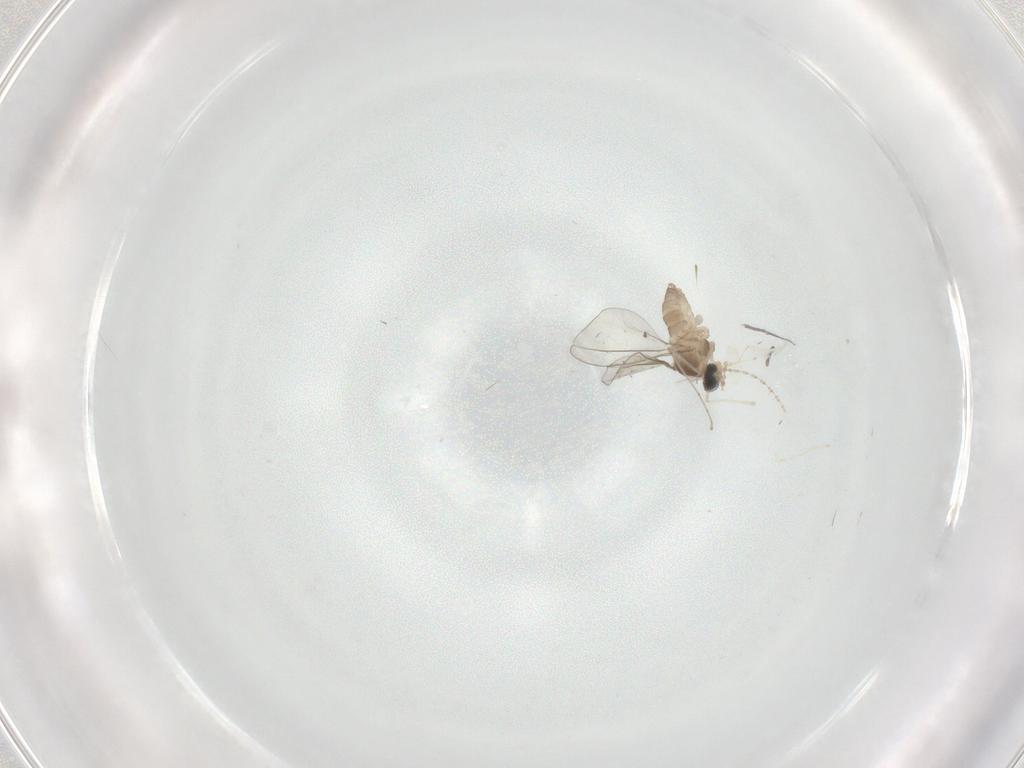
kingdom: Animalia
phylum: Arthropoda
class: Insecta
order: Diptera
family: Cecidomyiidae
